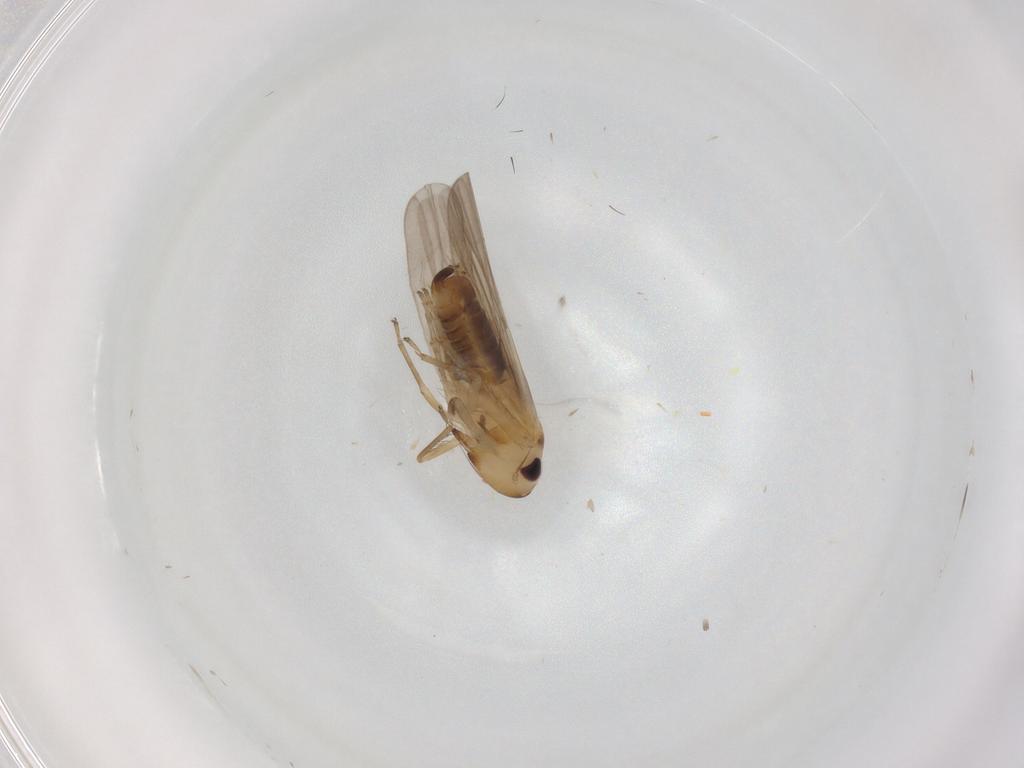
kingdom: Animalia
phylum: Arthropoda
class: Insecta
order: Hemiptera
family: Cicadellidae
